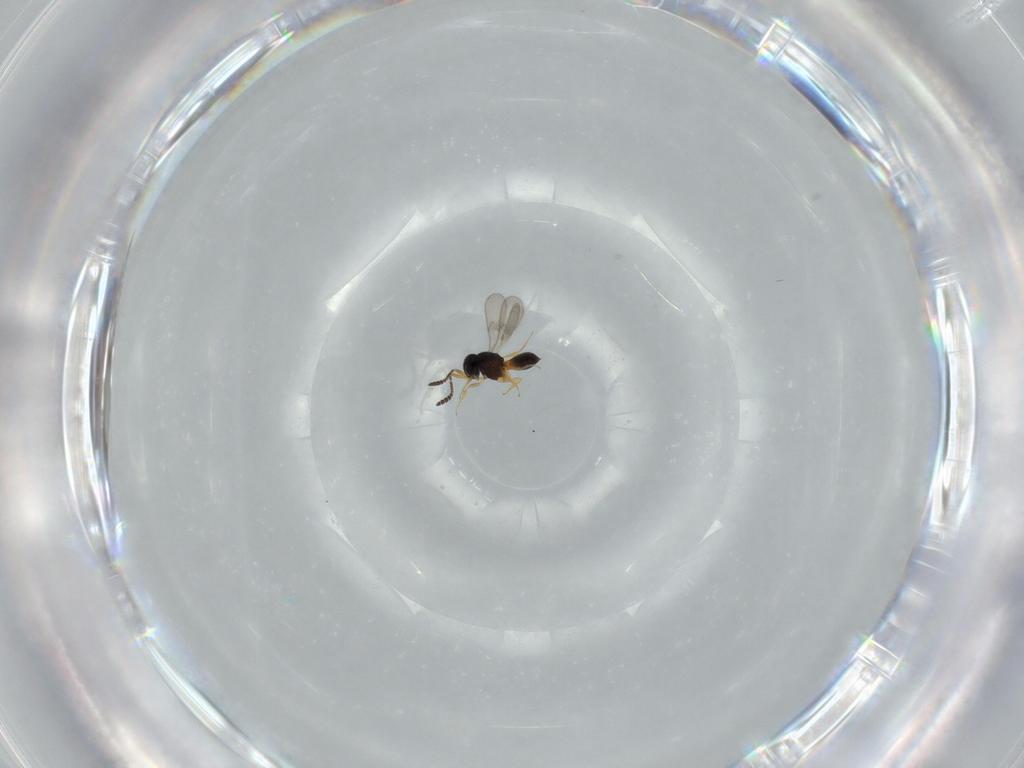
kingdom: Animalia
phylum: Arthropoda
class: Insecta
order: Hymenoptera
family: Scelionidae
